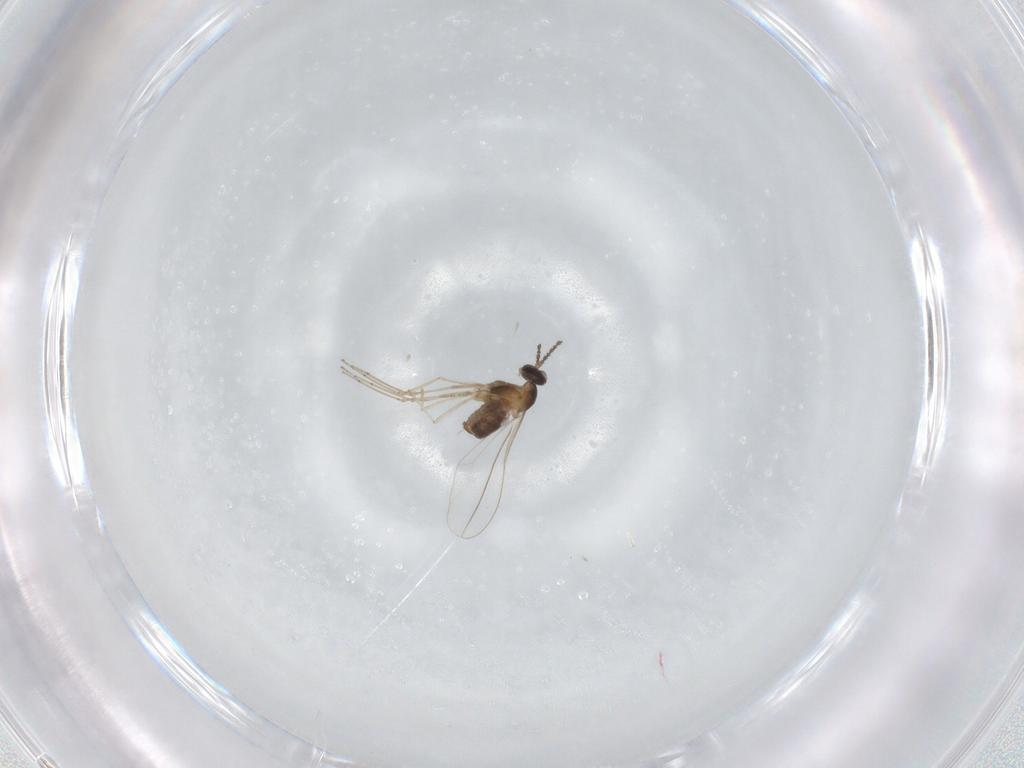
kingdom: Animalia
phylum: Arthropoda
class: Insecta
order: Diptera
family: Cecidomyiidae
